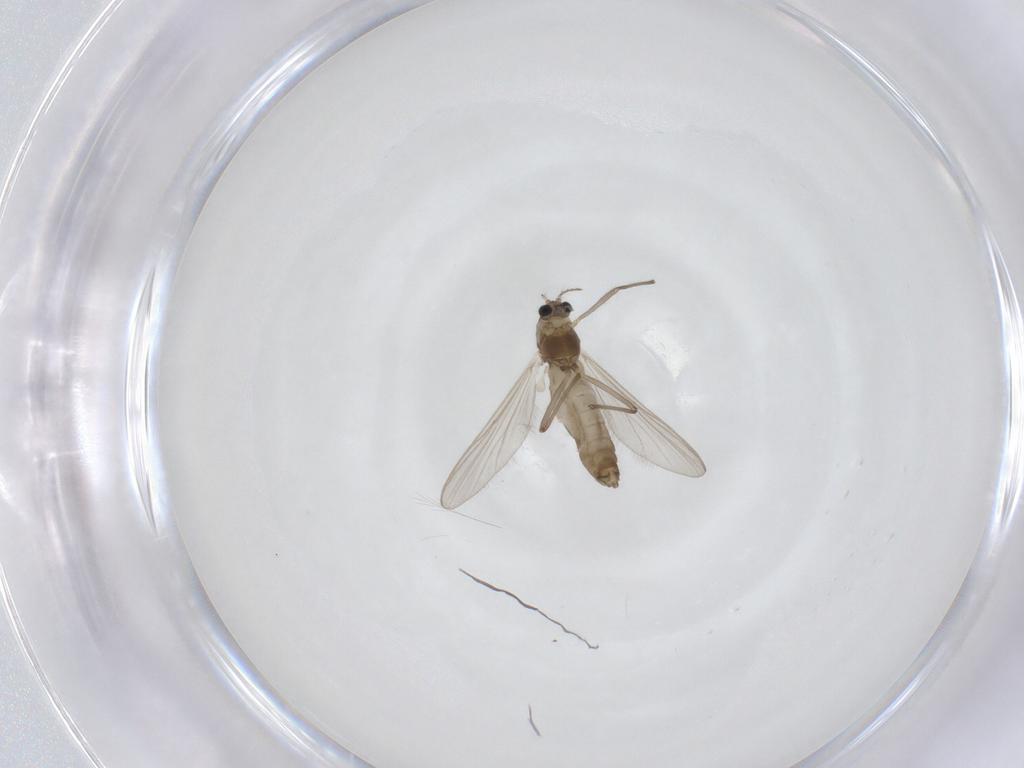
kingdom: Animalia
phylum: Arthropoda
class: Insecta
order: Diptera
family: Chironomidae
